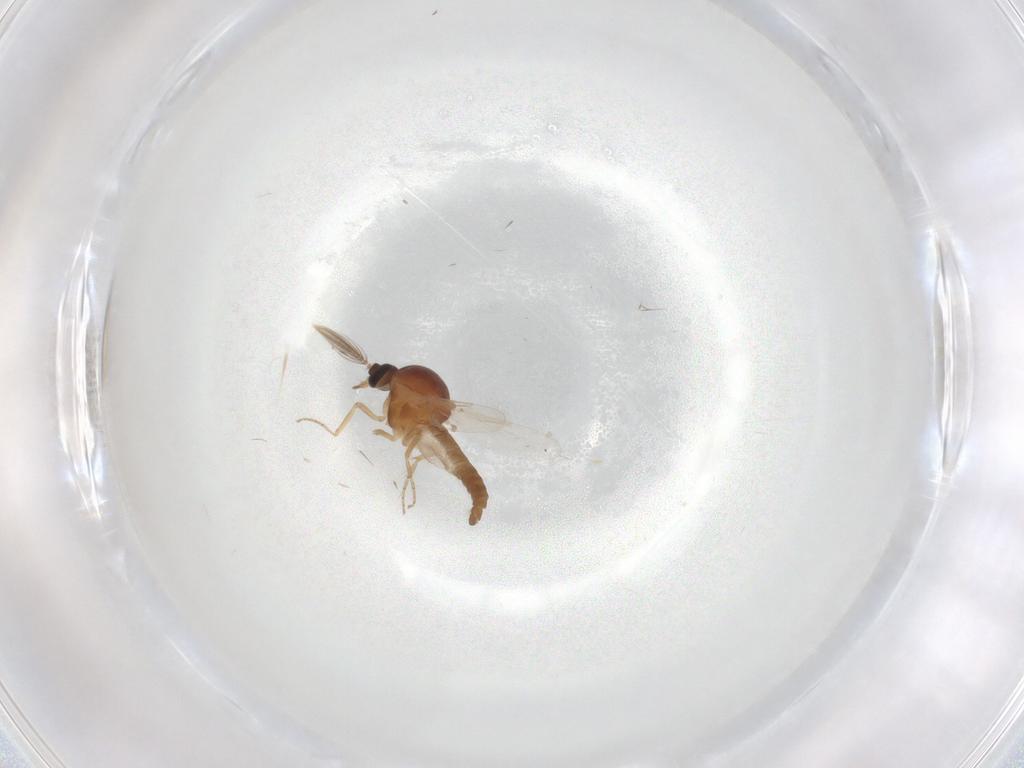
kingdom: Animalia
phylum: Arthropoda
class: Insecta
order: Diptera
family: Ceratopogonidae
